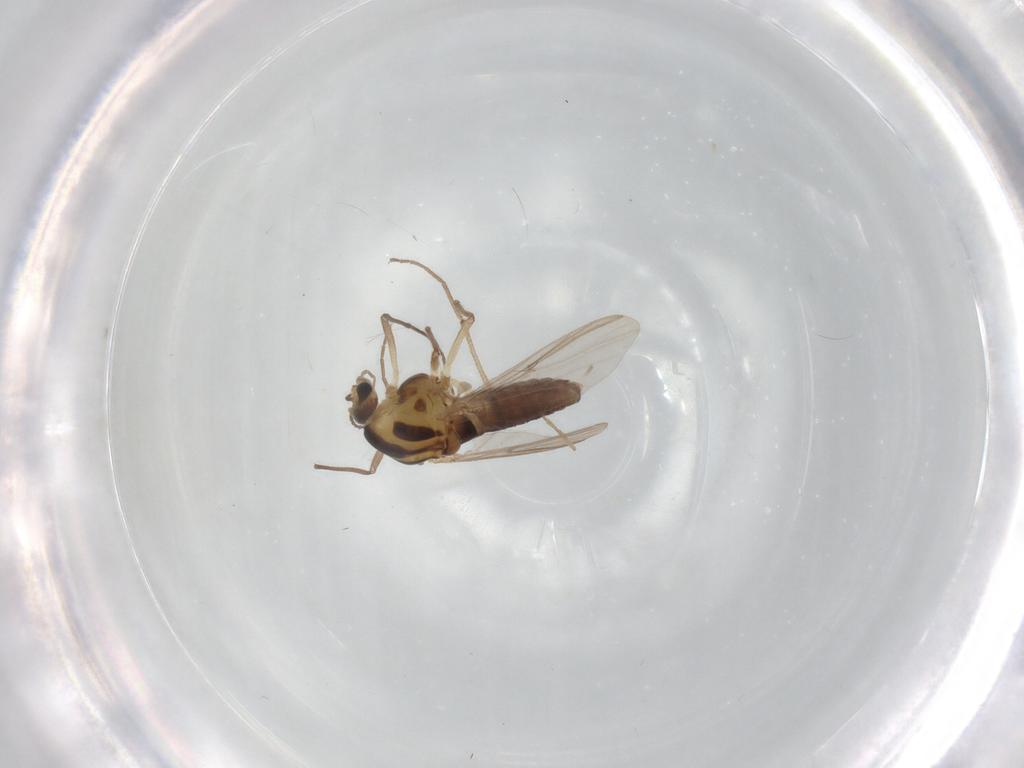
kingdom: Animalia
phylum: Arthropoda
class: Insecta
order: Diptera
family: Chironomidae
